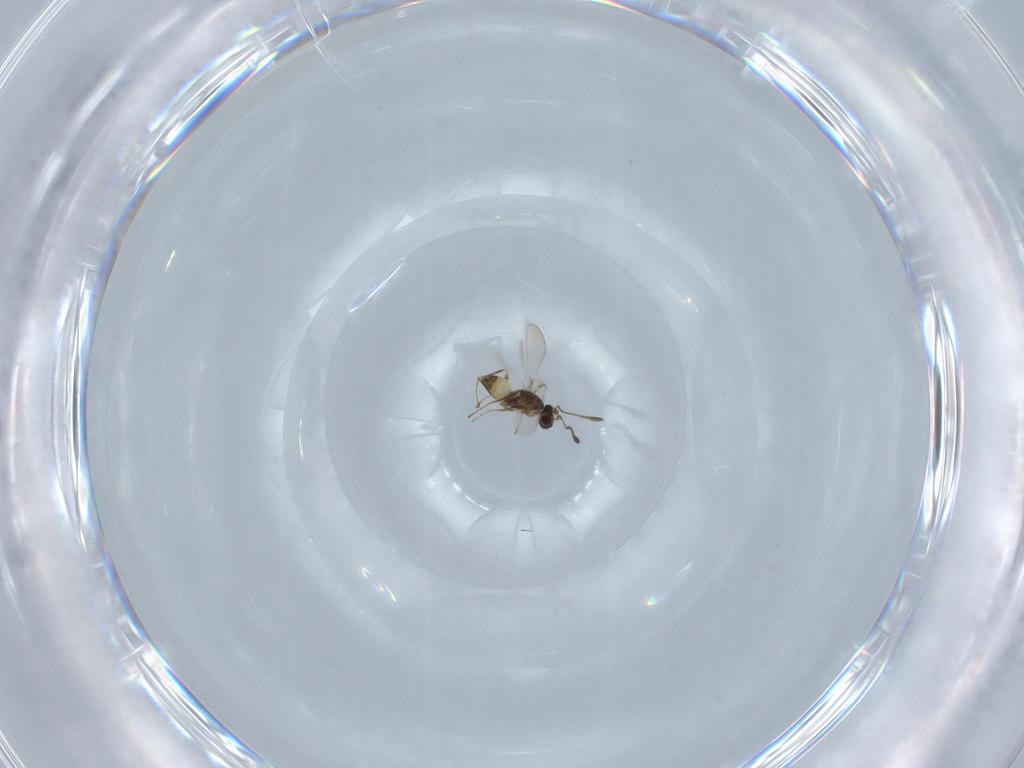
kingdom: Animalia
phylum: Arthropoda
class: Insecta
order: Hymenoptera
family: Mymaridae
